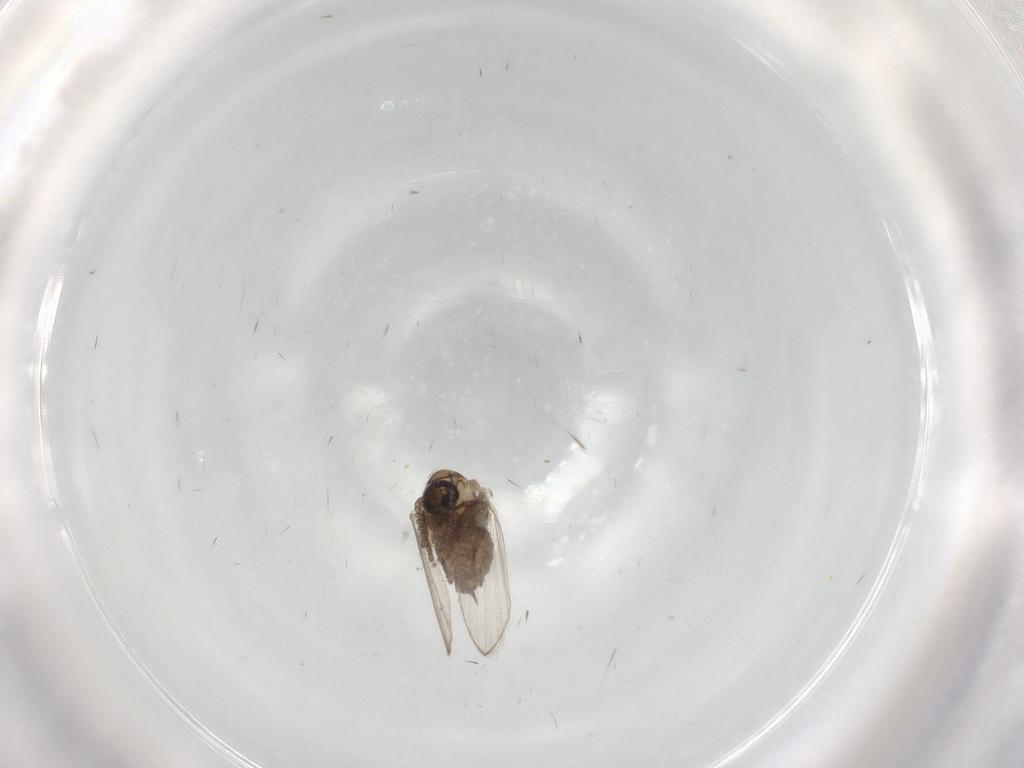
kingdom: Animalia
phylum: Arthropoda
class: Insecta
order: Diptera
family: Psychodidae
